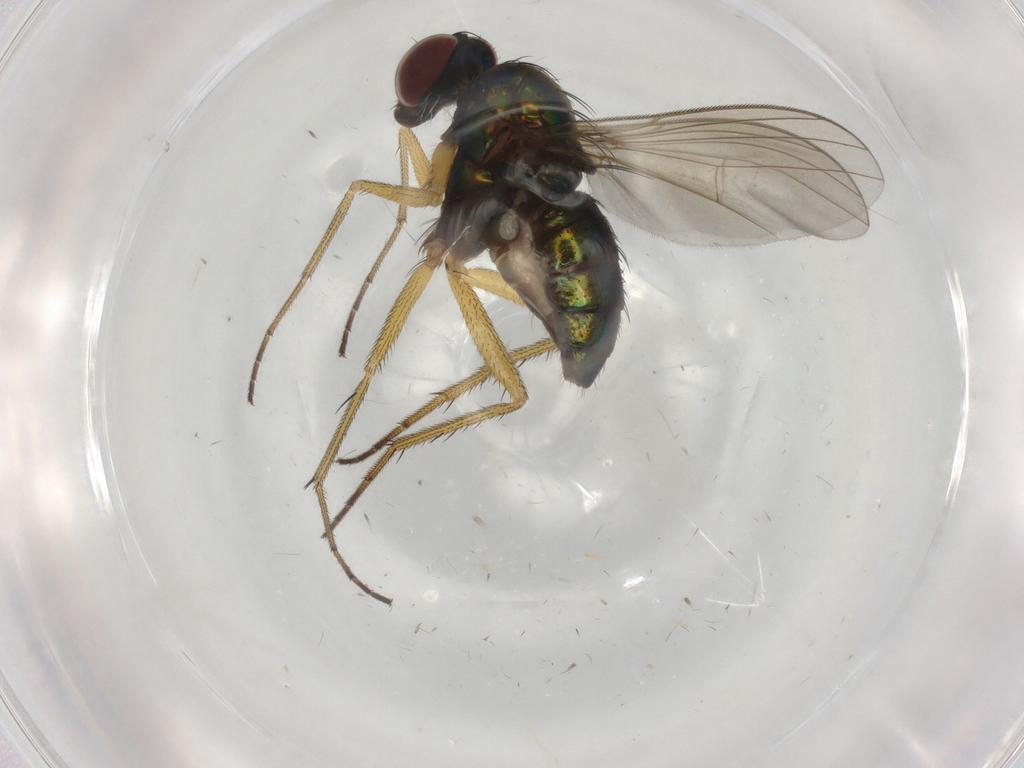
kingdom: Animalia
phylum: Arthropoda
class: Insecta
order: Diptera
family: Dolichopodidae
